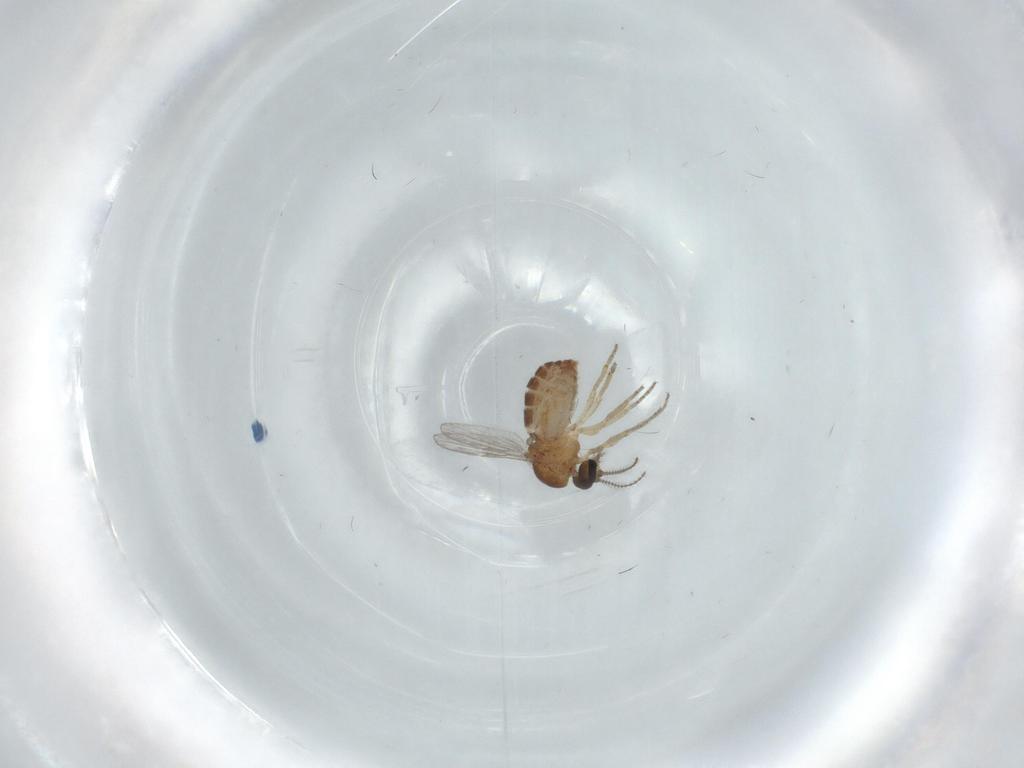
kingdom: Animalia
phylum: Arthropoda
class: Insecta
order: Diptera
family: Ceratopogonidae
